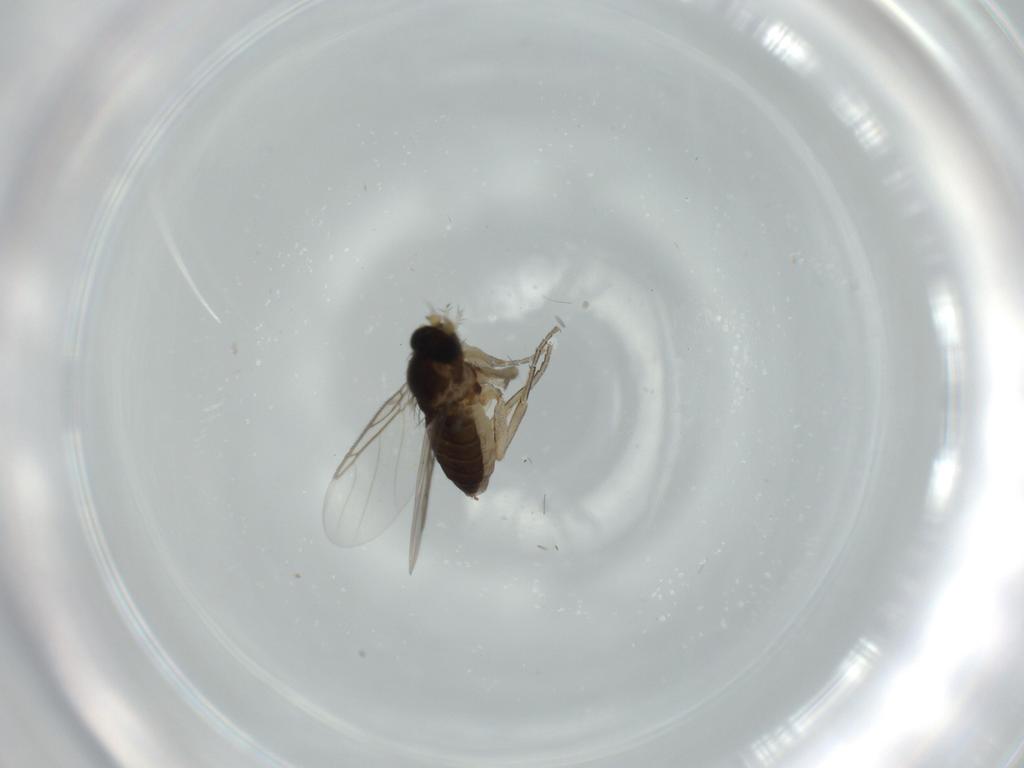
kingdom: Animalia
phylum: Arthropoda
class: Insecta
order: Diptera
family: Phoridae
